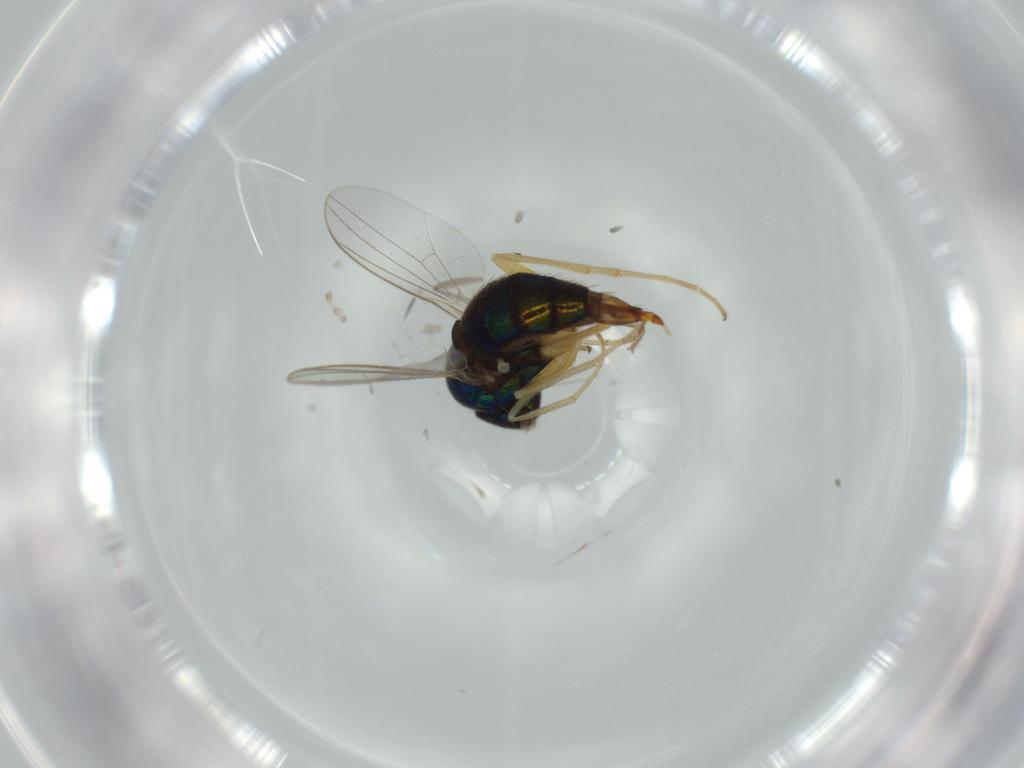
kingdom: Animalia
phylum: Arthropoda
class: Insecta
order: Diptera
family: Dolichopodidae
